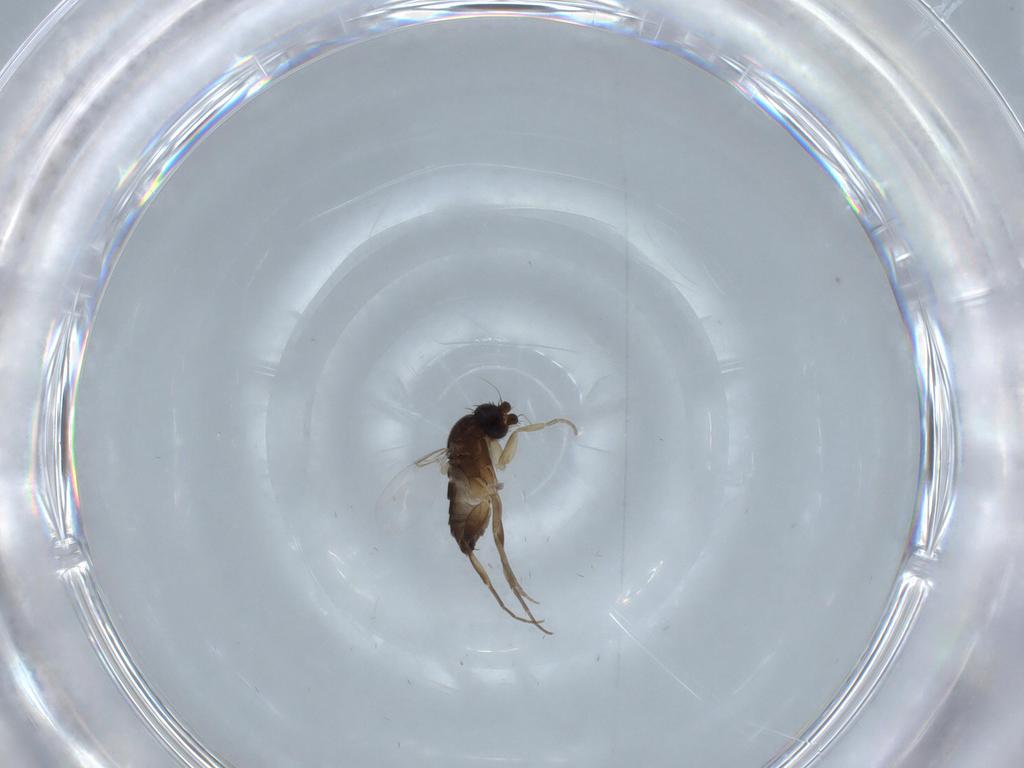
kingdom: Animalia
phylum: Arthropoda
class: Insecta
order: Diptera
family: Phoridae
